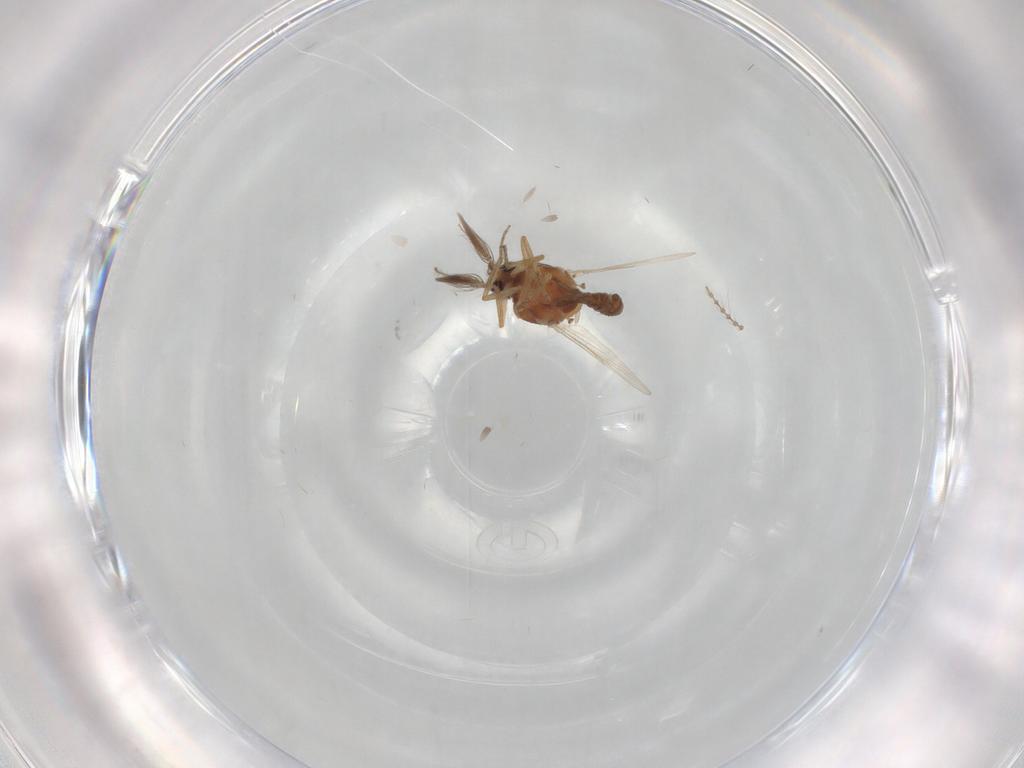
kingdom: Animalia
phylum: Arthropoda
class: Insecta
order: Diptera
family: Ceratopogonidae
